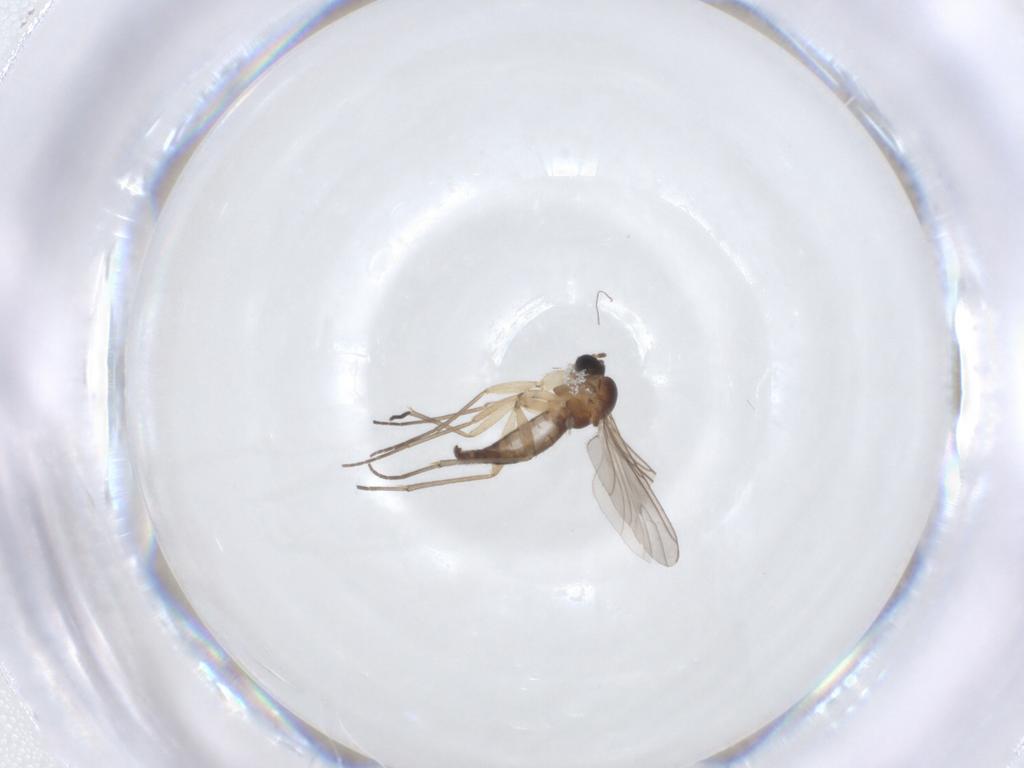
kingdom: Animalia
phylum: Arthropoda
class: Insecta
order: Diptera
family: Sciaridae
